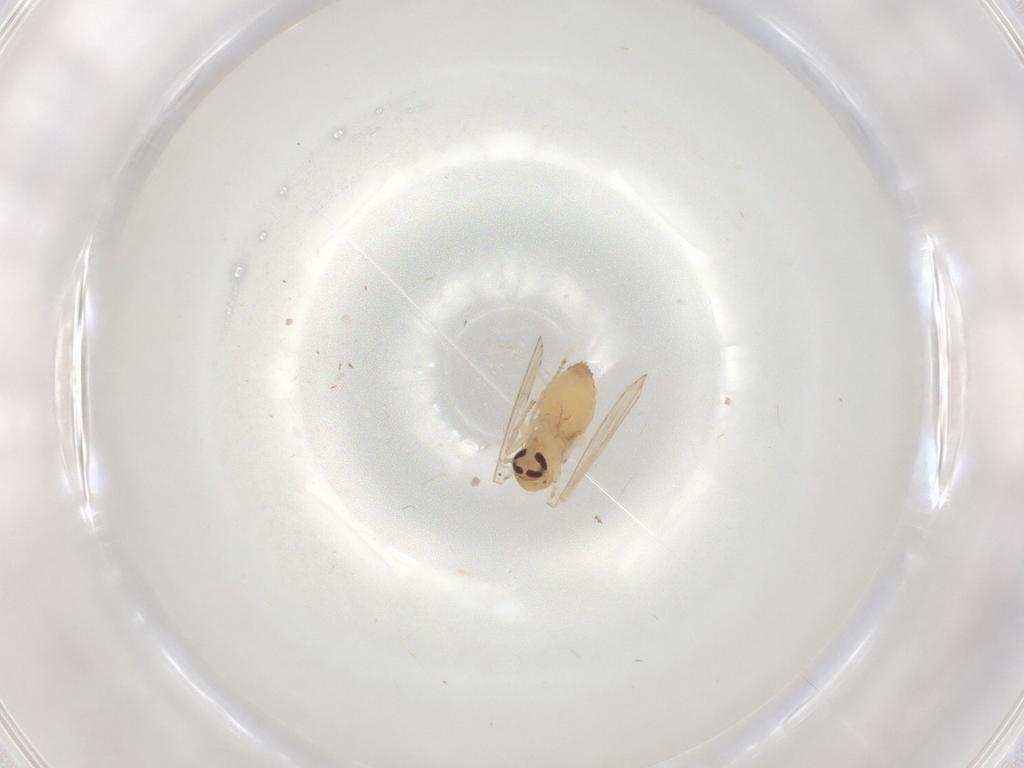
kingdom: Animalia
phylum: Arthropoda
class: Insecta
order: Diptera
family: Psychodidae
